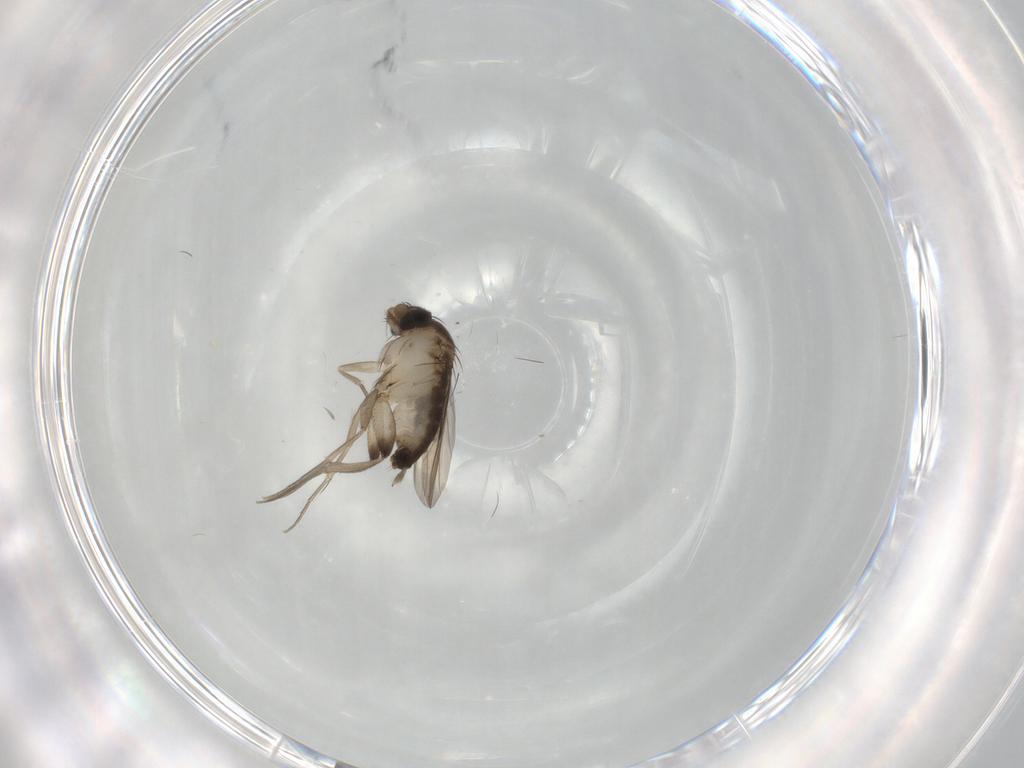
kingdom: Animalia
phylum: Arthropoda
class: Insecta
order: Diptera
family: Phoridae
